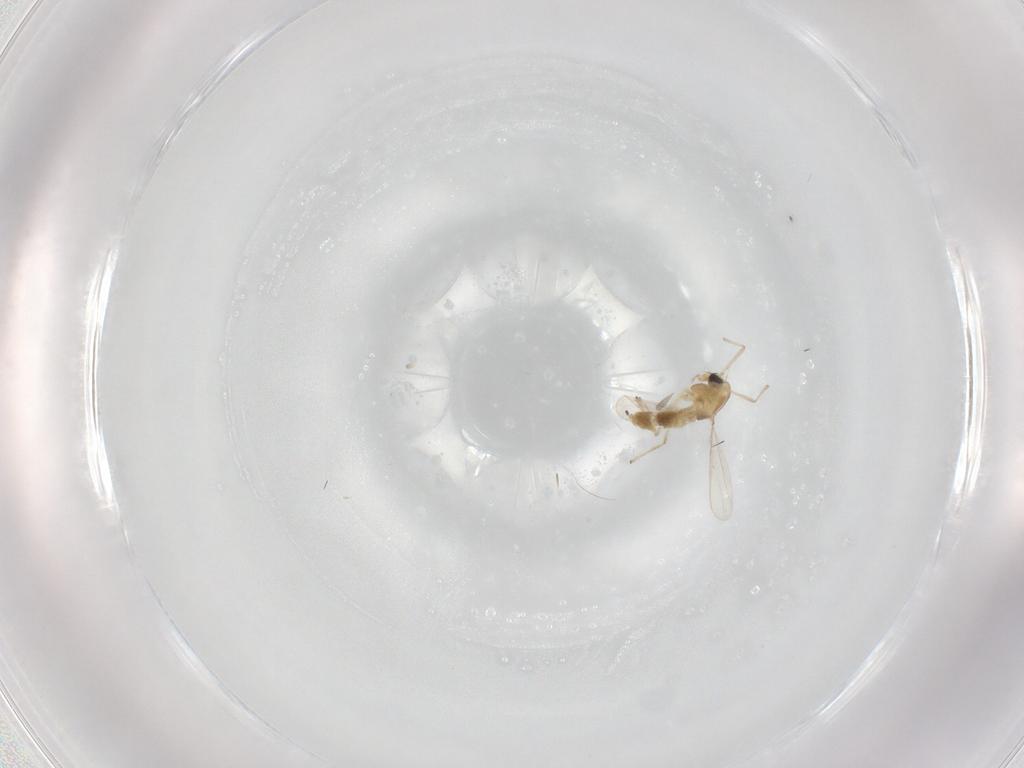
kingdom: Animalia
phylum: Arthropoda
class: Insecta
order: Diptera
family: Chironomidae
